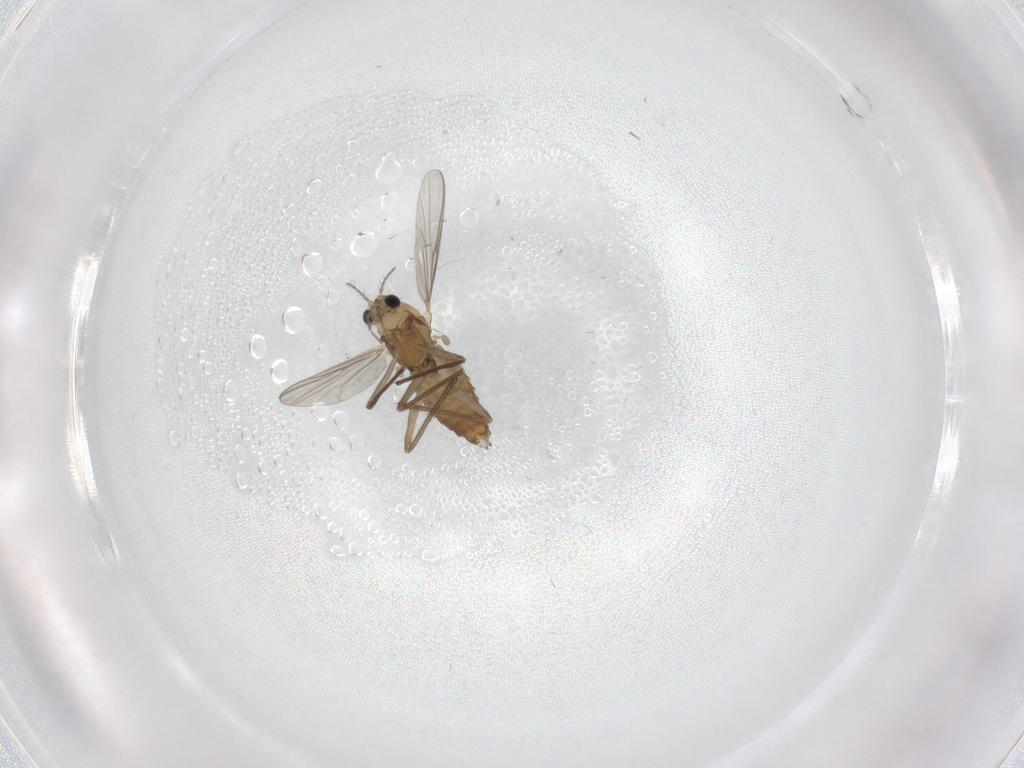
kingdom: Animalia
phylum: Arthropoda
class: Insecta
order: Diptera
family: Chironomidae
